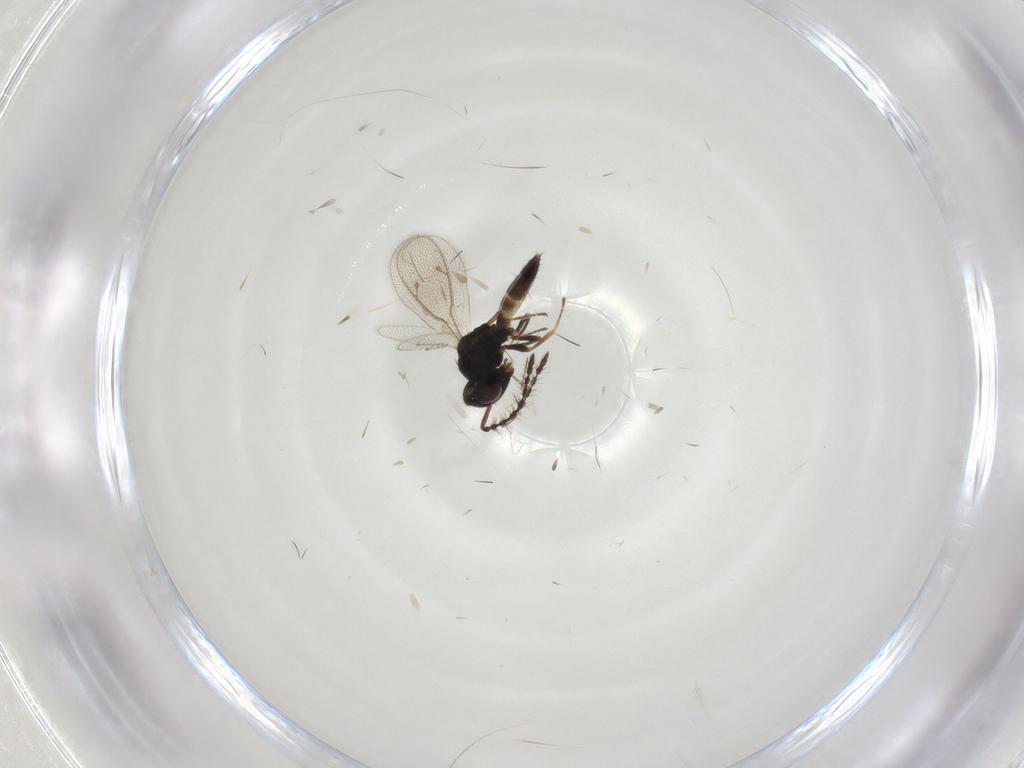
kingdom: Animalia
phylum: Arthropoda
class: Insecta
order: Hymenoptera
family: Pteromalidae
